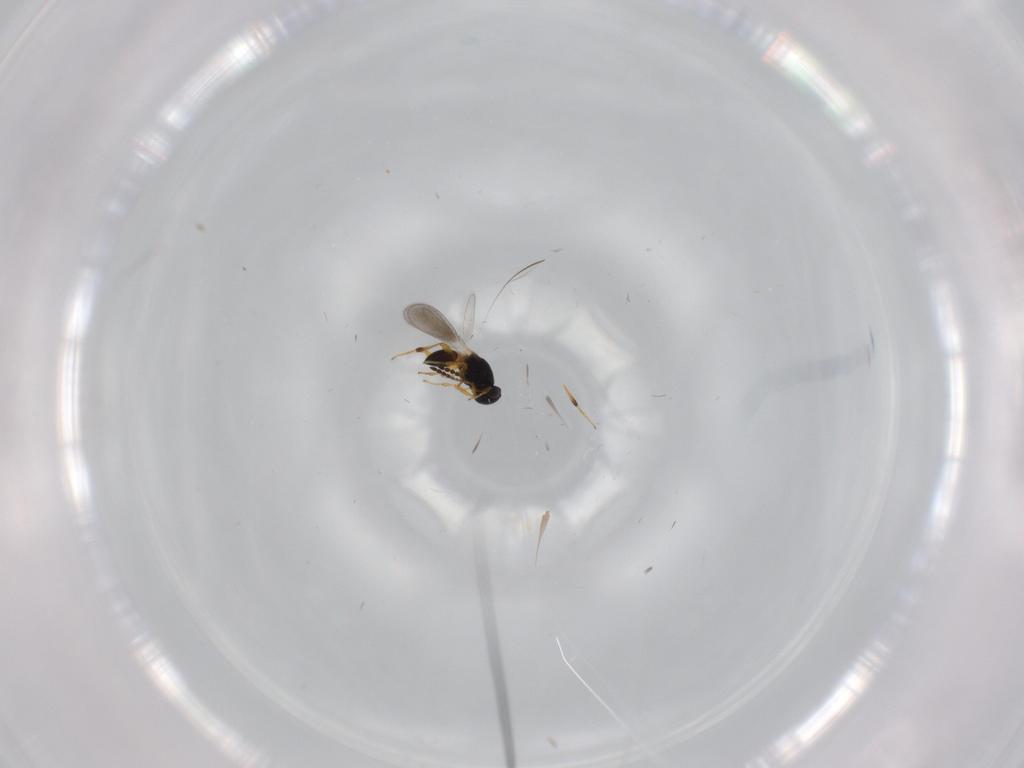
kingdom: Animalia
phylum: Arthropoda
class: Insecta
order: Hymenoptera
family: Platygastridae
